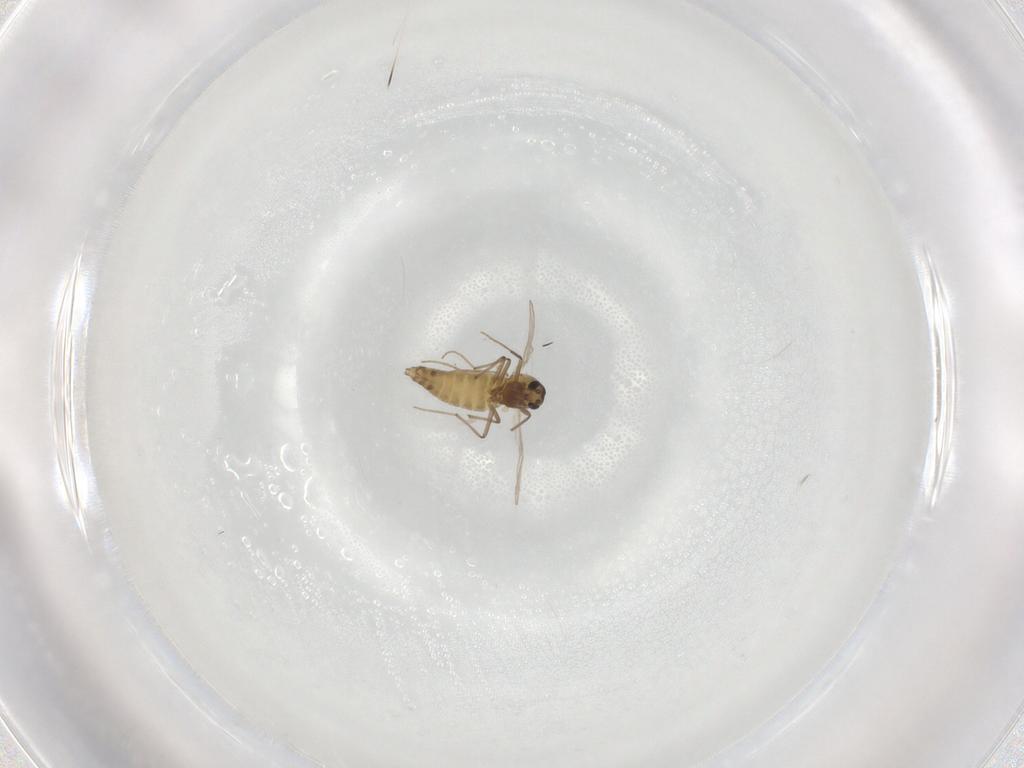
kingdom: Animalia
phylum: Arthropoda
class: Insecta
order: Diptera
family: Chironomidae
